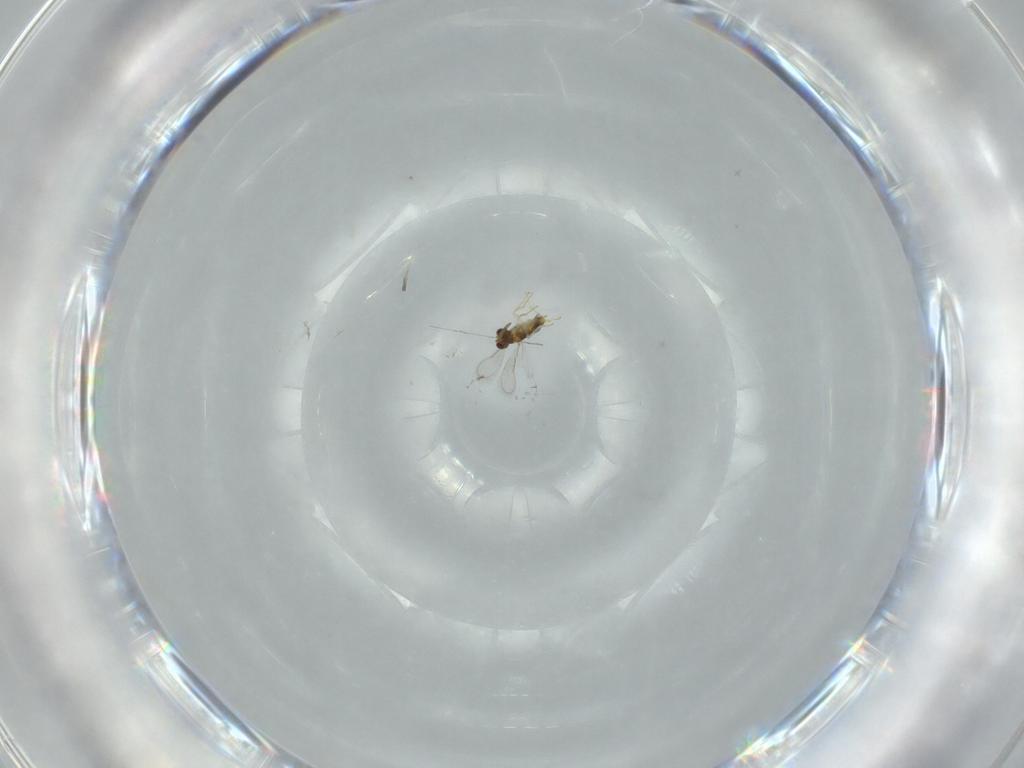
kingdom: Animalia
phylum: Arthropoda
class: Insecta
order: Hymenoptera
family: Aphelinidae
